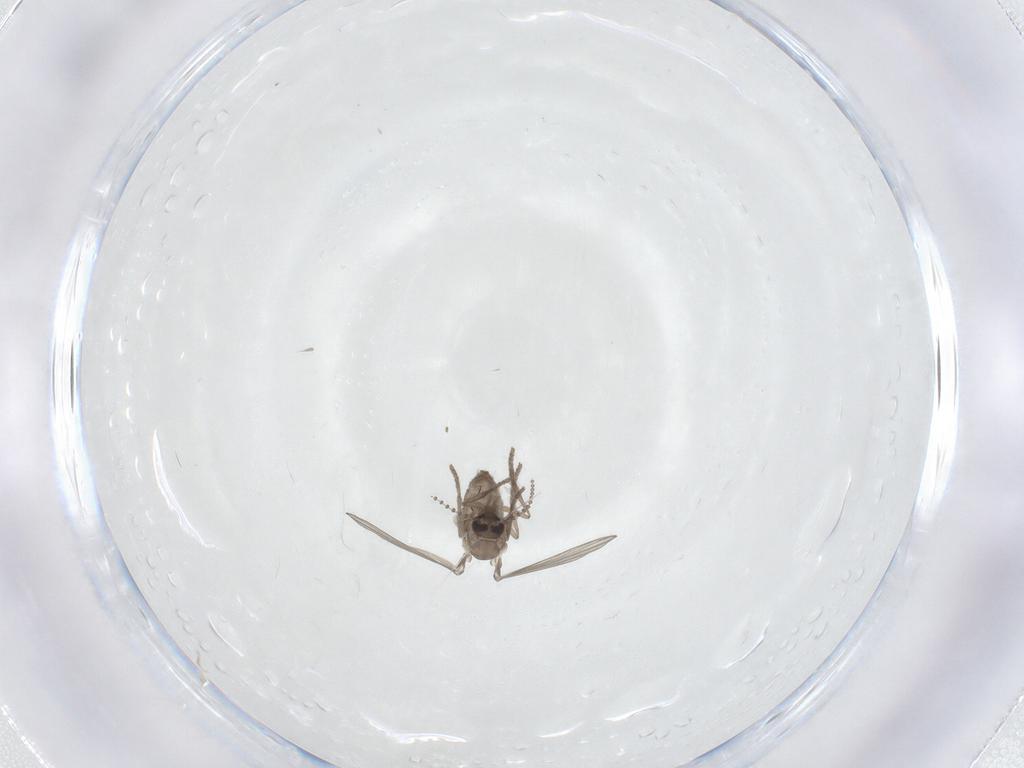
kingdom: Animalia
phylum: Arthropoda
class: Insecta
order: Diptera
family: Psychodidae
